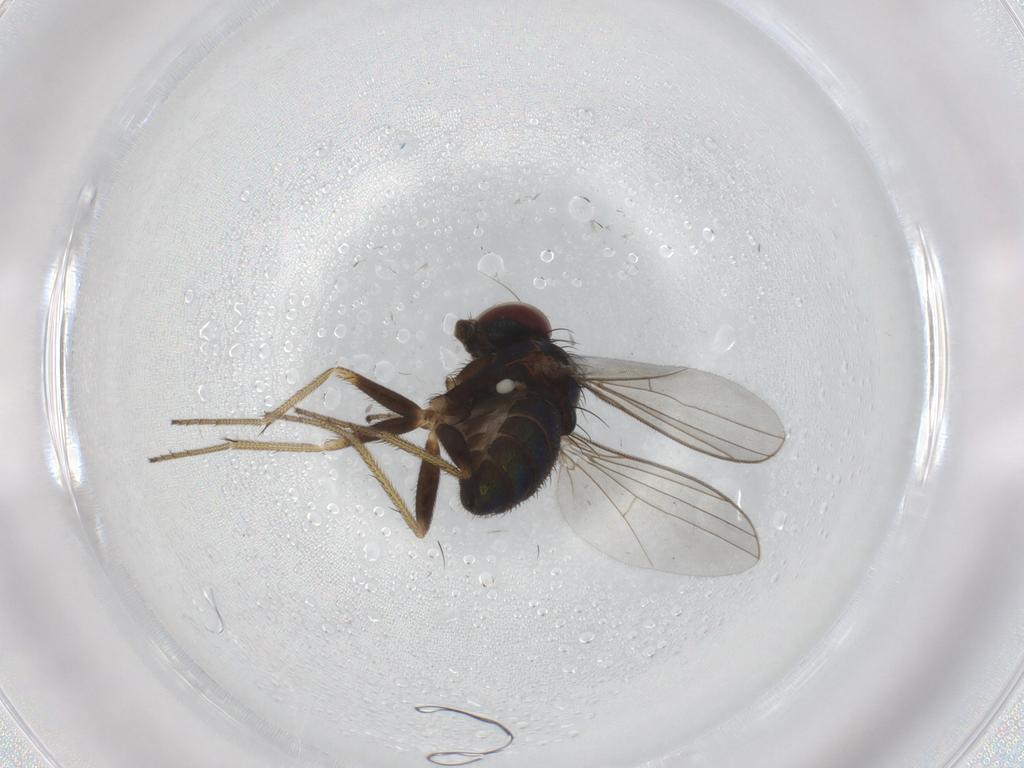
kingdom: Animalia
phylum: Arthropoda
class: Insecta
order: Diptera
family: Dolichopodidae
